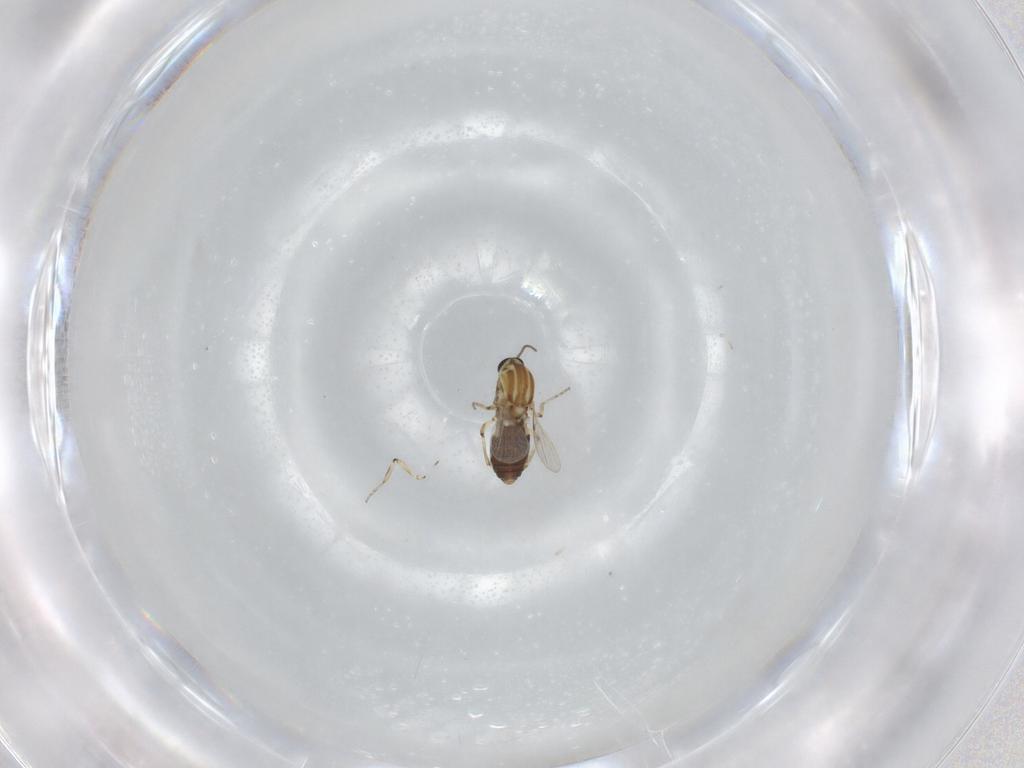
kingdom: Animalia
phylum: Arthropoda
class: Insecta
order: Diptera
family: Ceratopogonidae
